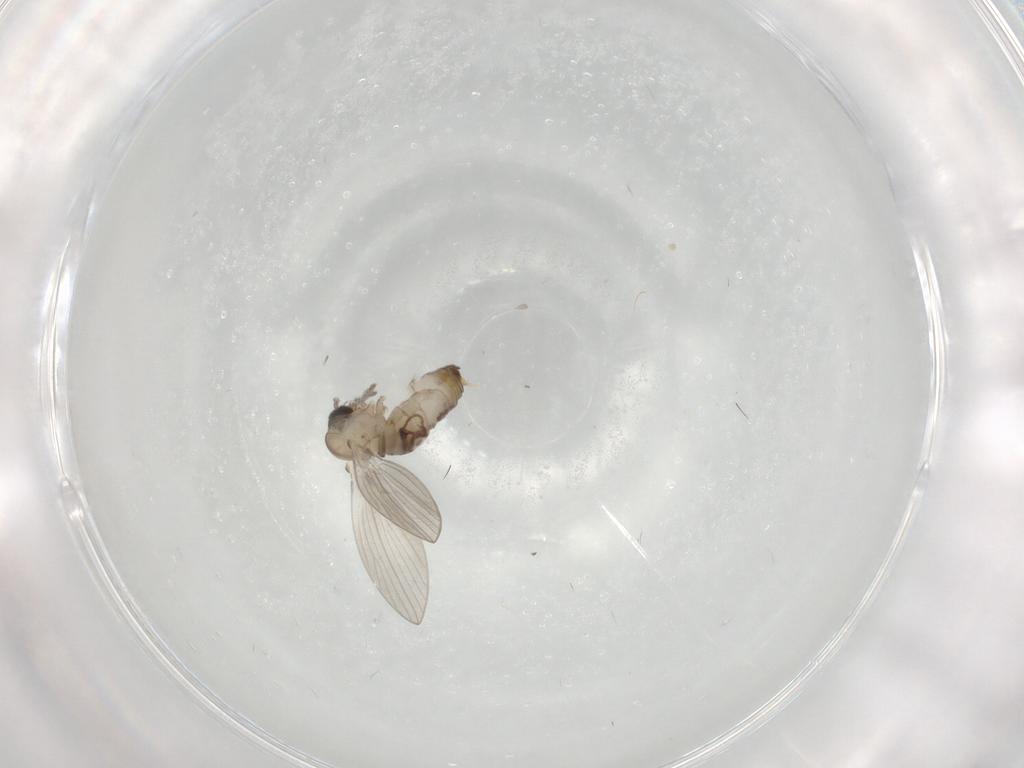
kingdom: Animalia
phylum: Arthropoda
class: Insecta
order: Diptera
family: Psychodidae
